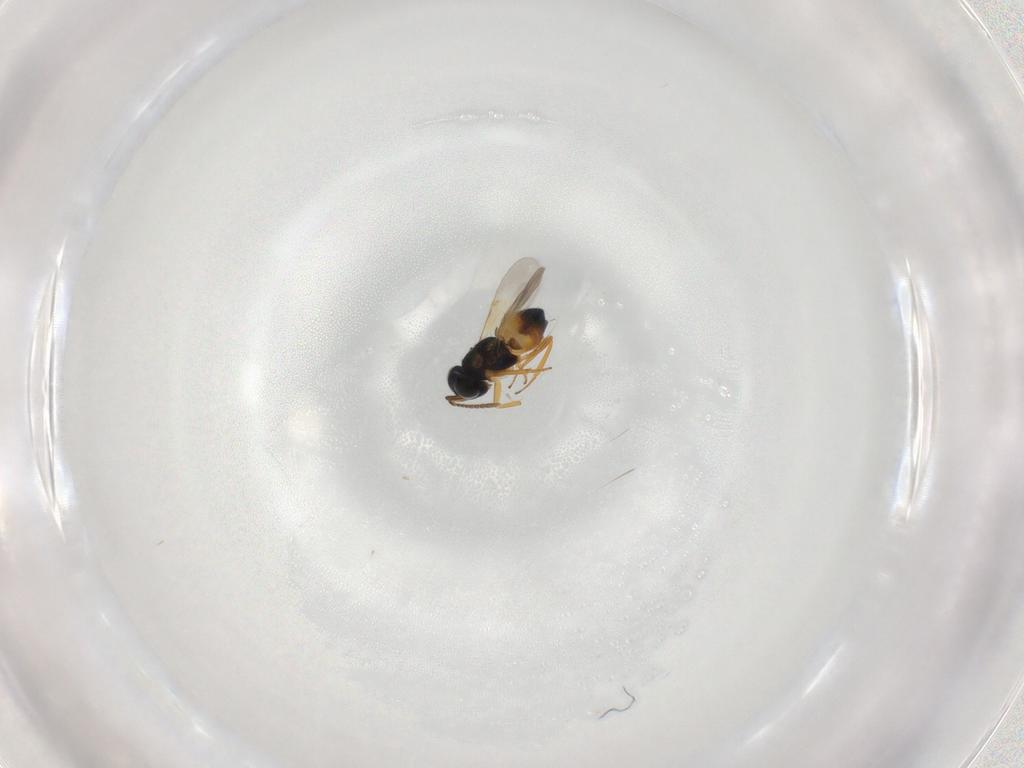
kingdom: Animalia
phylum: Arthropoda
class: Insecta
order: Hymenoptera
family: Encyrtidae
